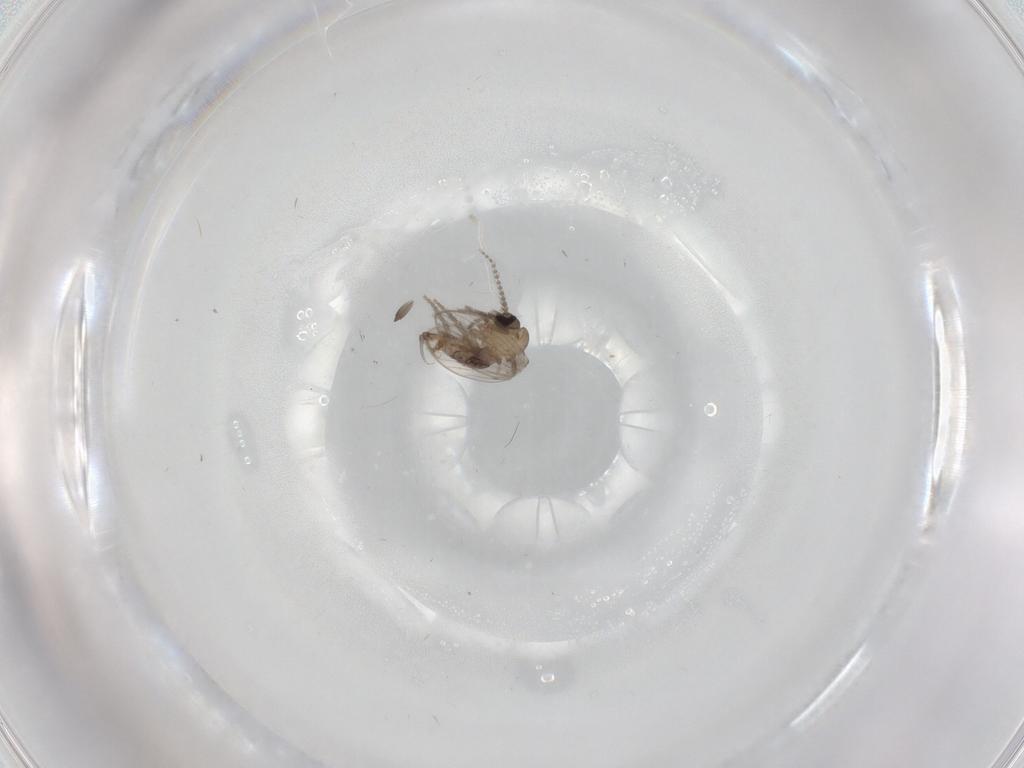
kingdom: Animalia
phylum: Arthropoda
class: Insecta
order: Diptera
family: Psychodidae
